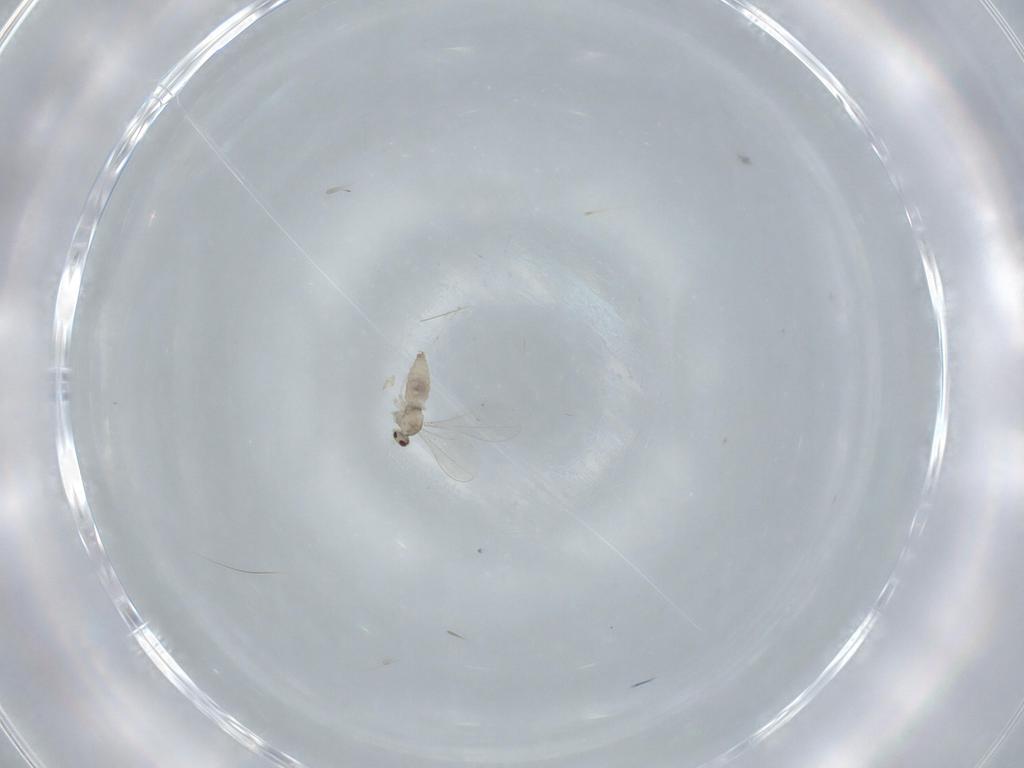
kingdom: Animalia
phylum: Arthropoda
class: Insecta
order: Diptera
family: Cecidomyiidae
